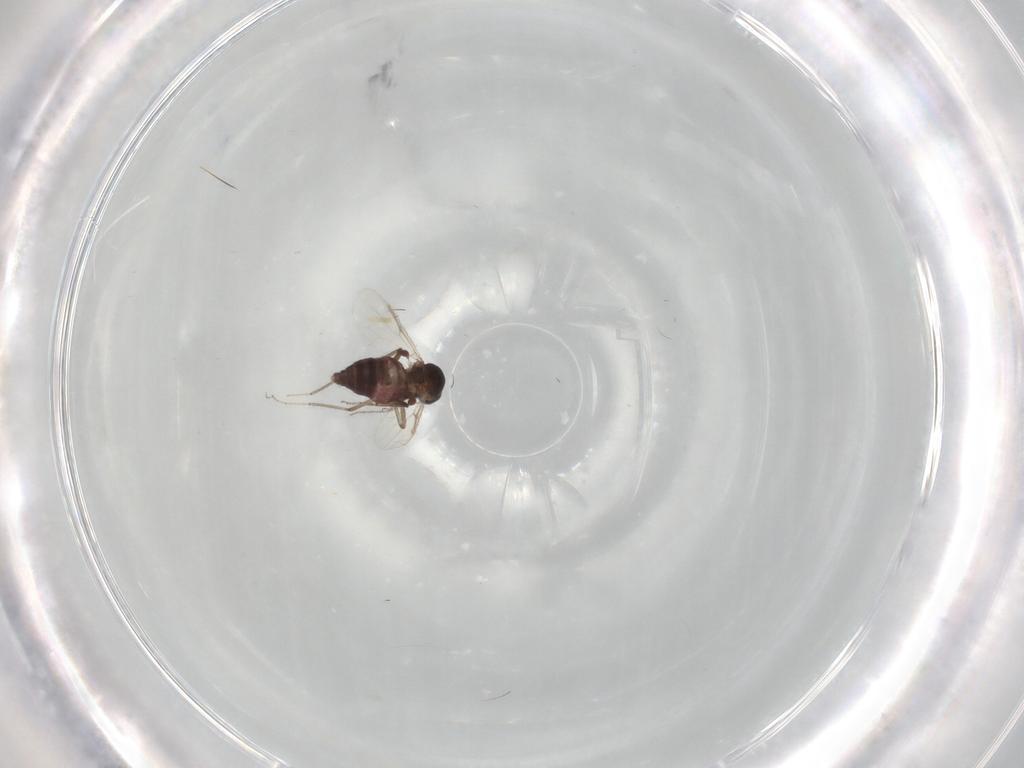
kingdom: Animalia
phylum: Arthropoda
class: Insecta
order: Diptera
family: Ceratopogonidae
